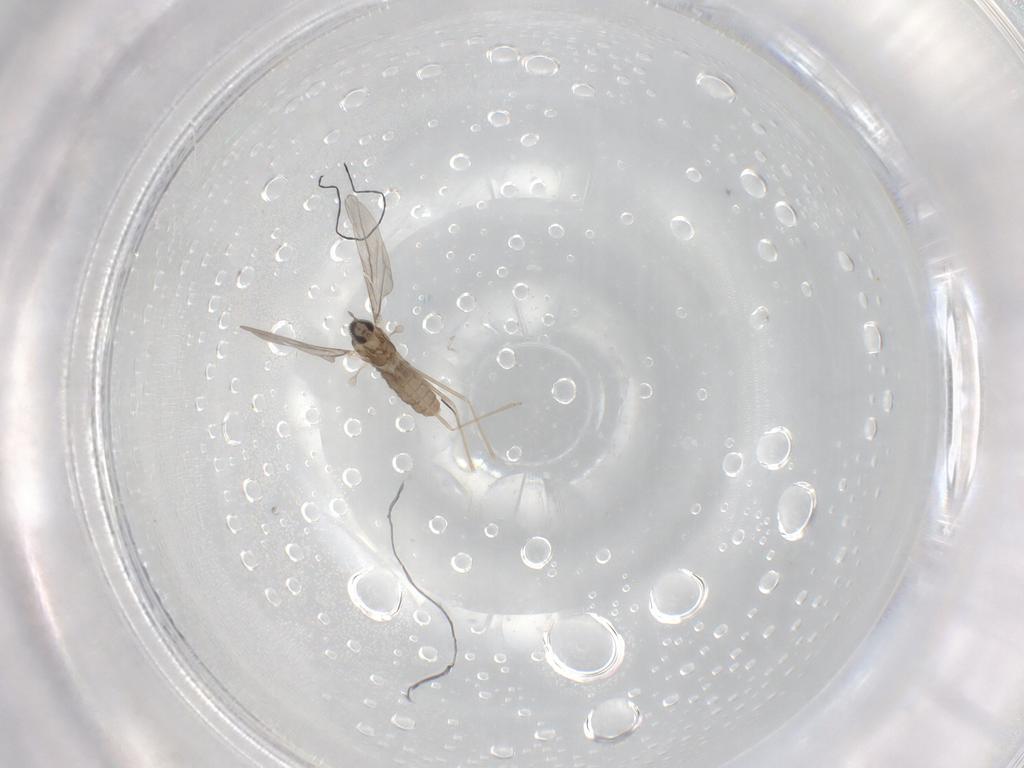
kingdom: Animalia
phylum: Arthropoda
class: Insecta
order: Diptera
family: Cecidomyiidae
